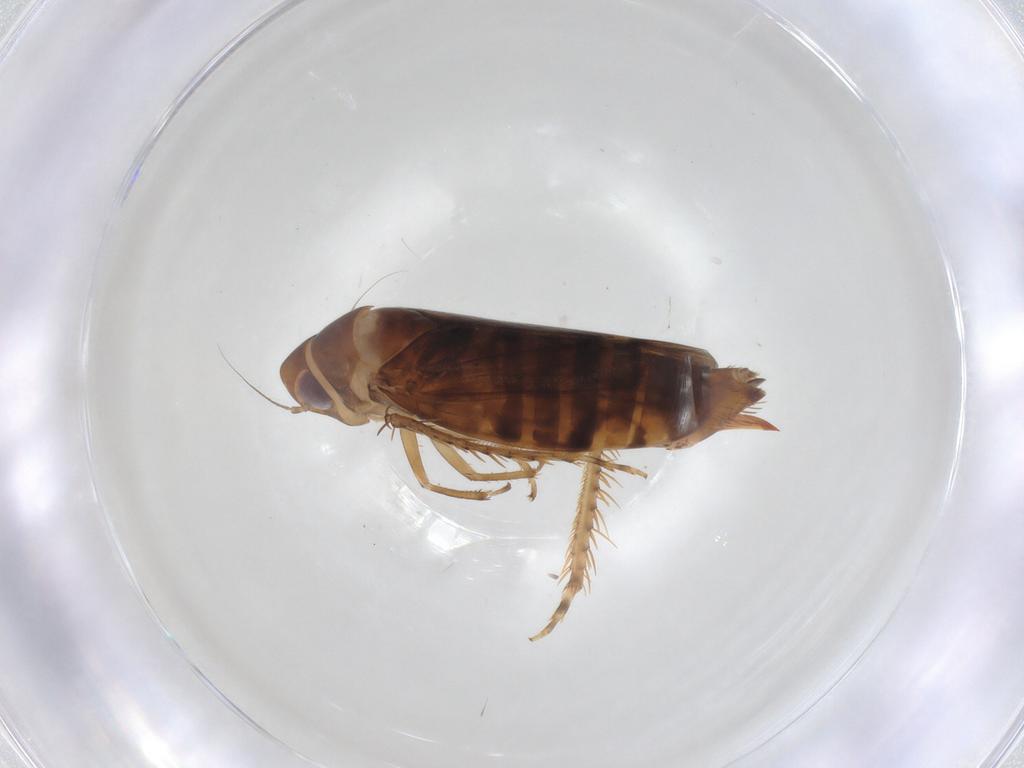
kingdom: Animalia
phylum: Arthropoda
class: Insecta
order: Hemiptera
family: Cicadellidae
